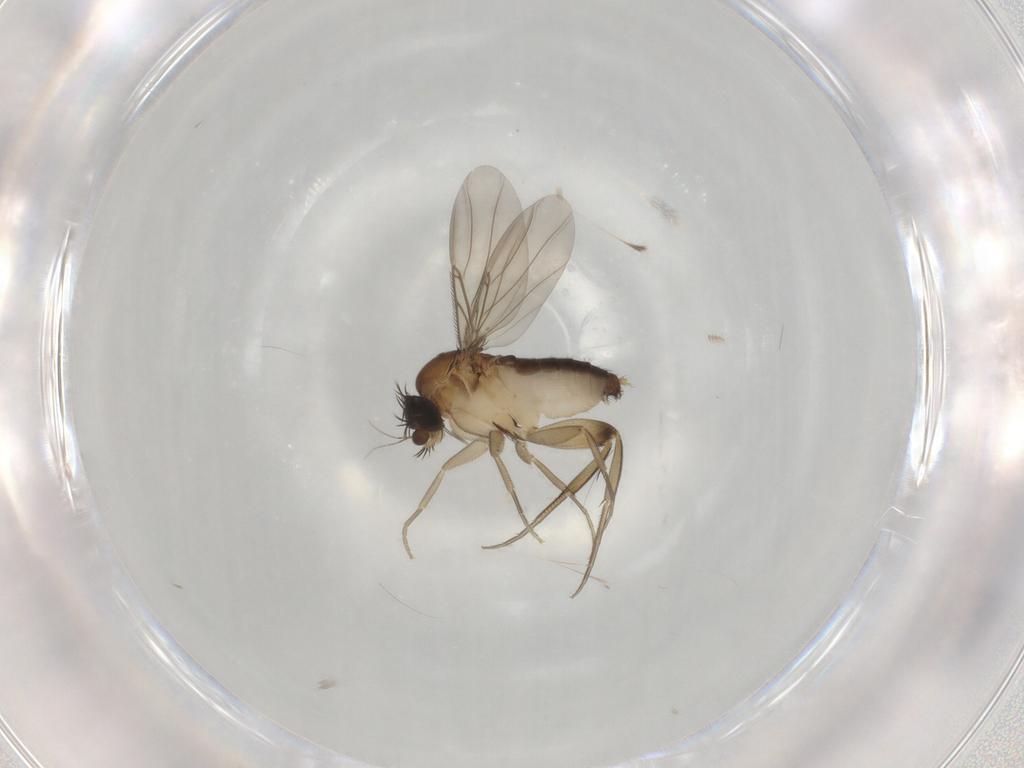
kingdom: Animalia
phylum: Arthropoda
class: Insecta
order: Diptera
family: Phoridae
